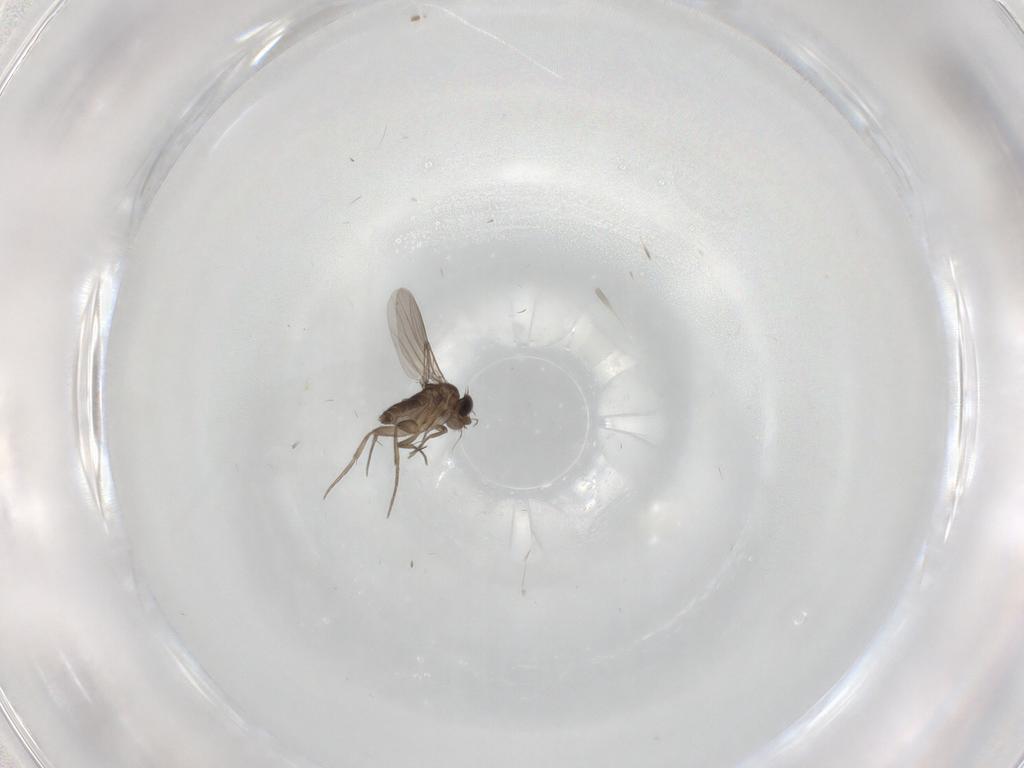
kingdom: Animalia
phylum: Arthropoda
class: Insecta
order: Diptera
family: Phoridae
